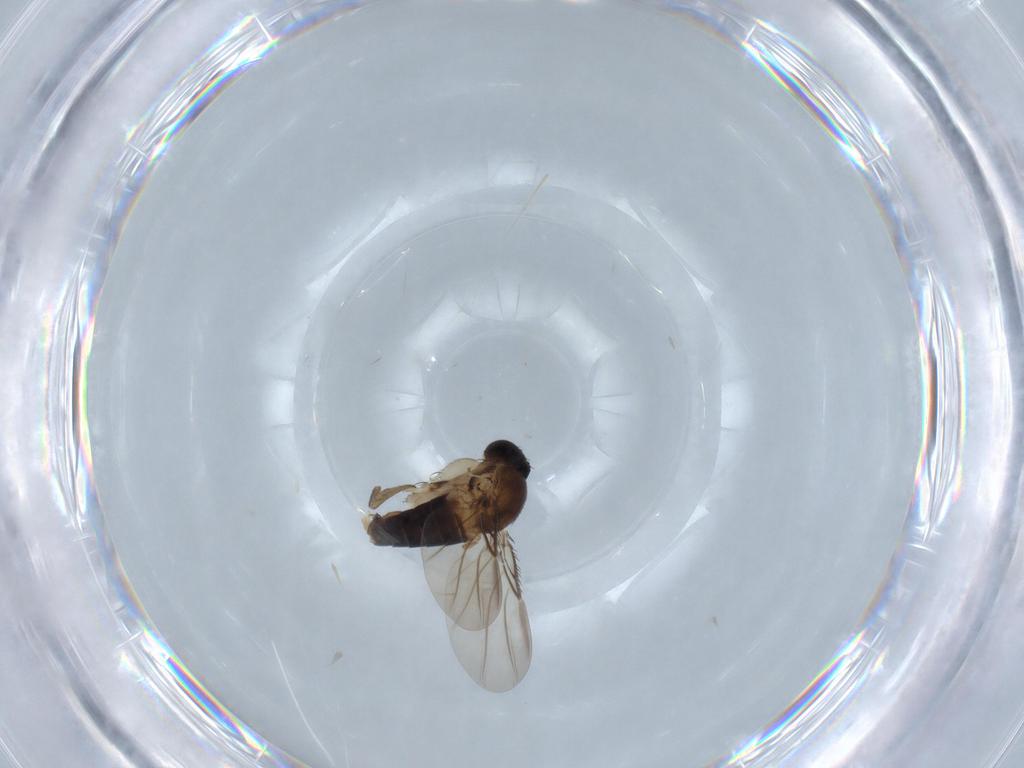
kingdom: Animalia
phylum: Arthropoda
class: Insecta
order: Diptera
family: Phoridae
